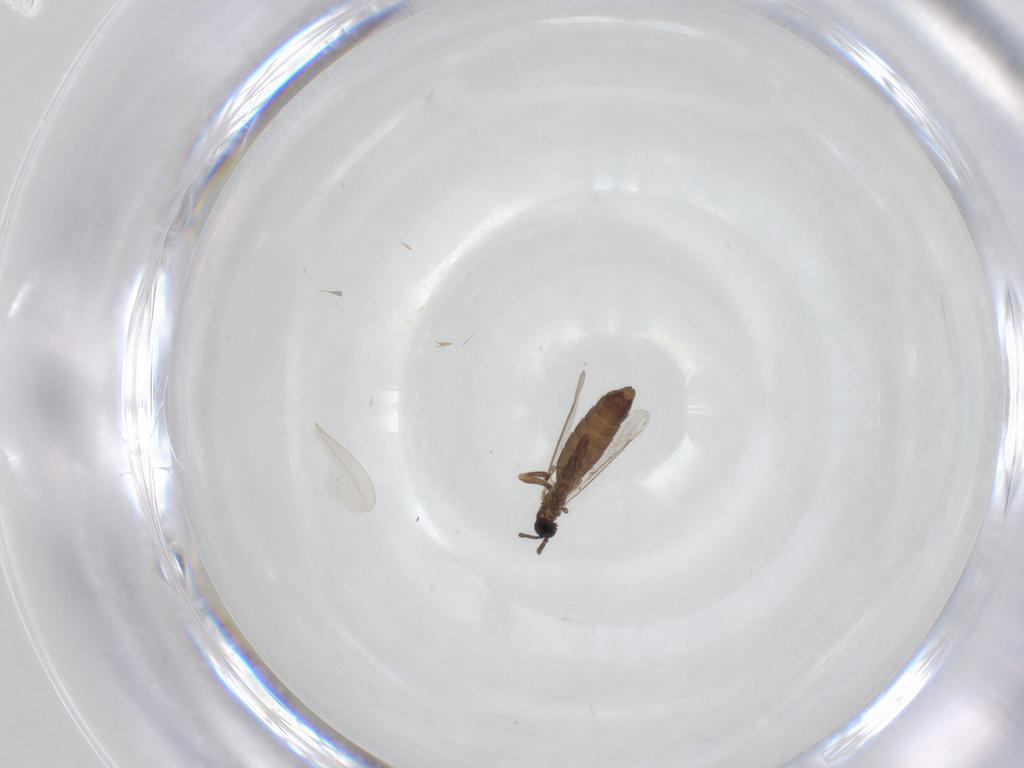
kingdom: Animalia
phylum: Arthropoda
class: Insecta
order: Diptera
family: Scatopsidae
